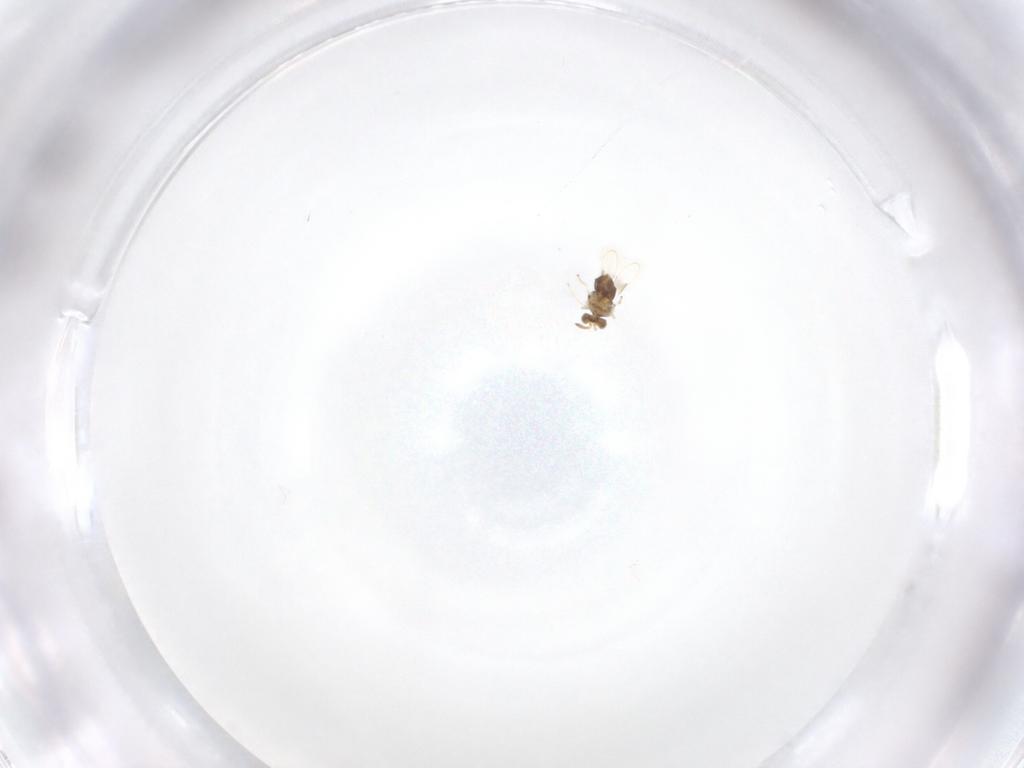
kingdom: Animalia
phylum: Arthropoda
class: Insecta
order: Hymenoptera
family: Aphelinidae
